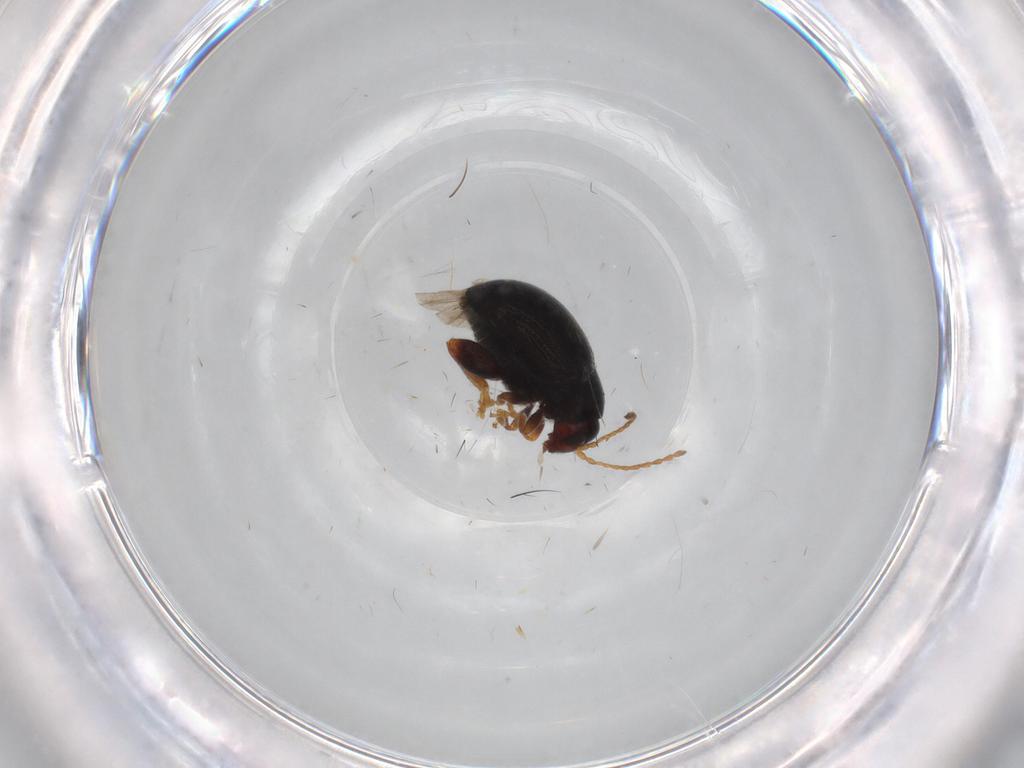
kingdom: Animalia
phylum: Arthropoda
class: Insecta
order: Coleoptera
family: Chrysomelidae
